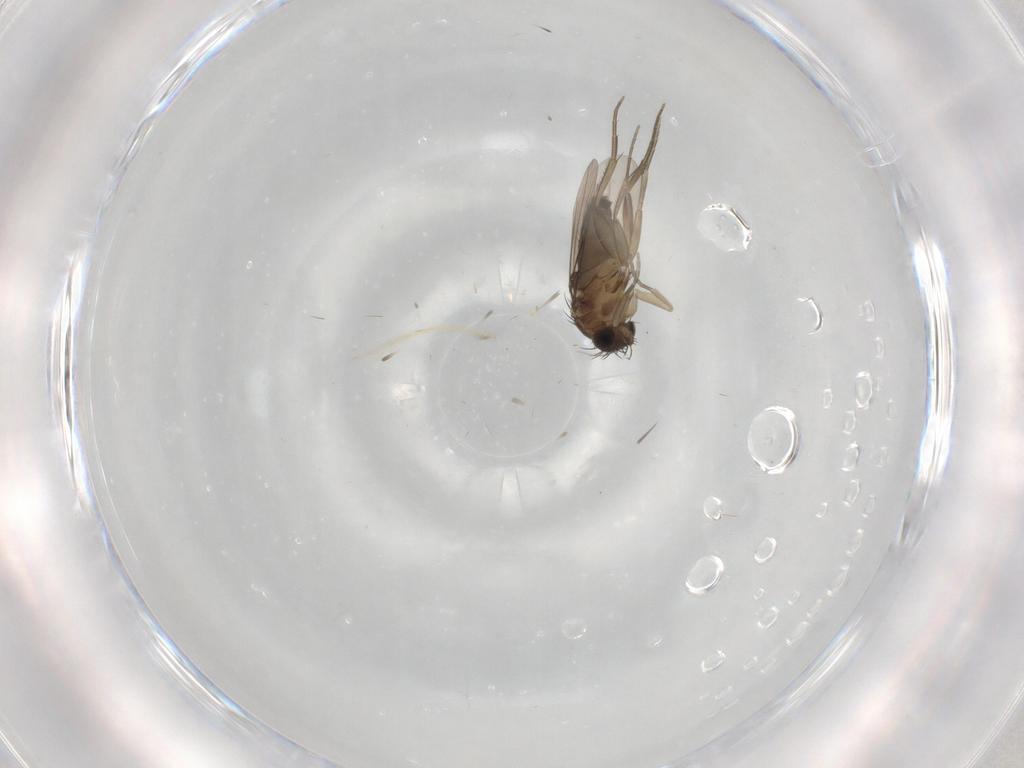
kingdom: Animalia
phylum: Arthropoda
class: Insecta
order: Diptera
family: Phoridae
